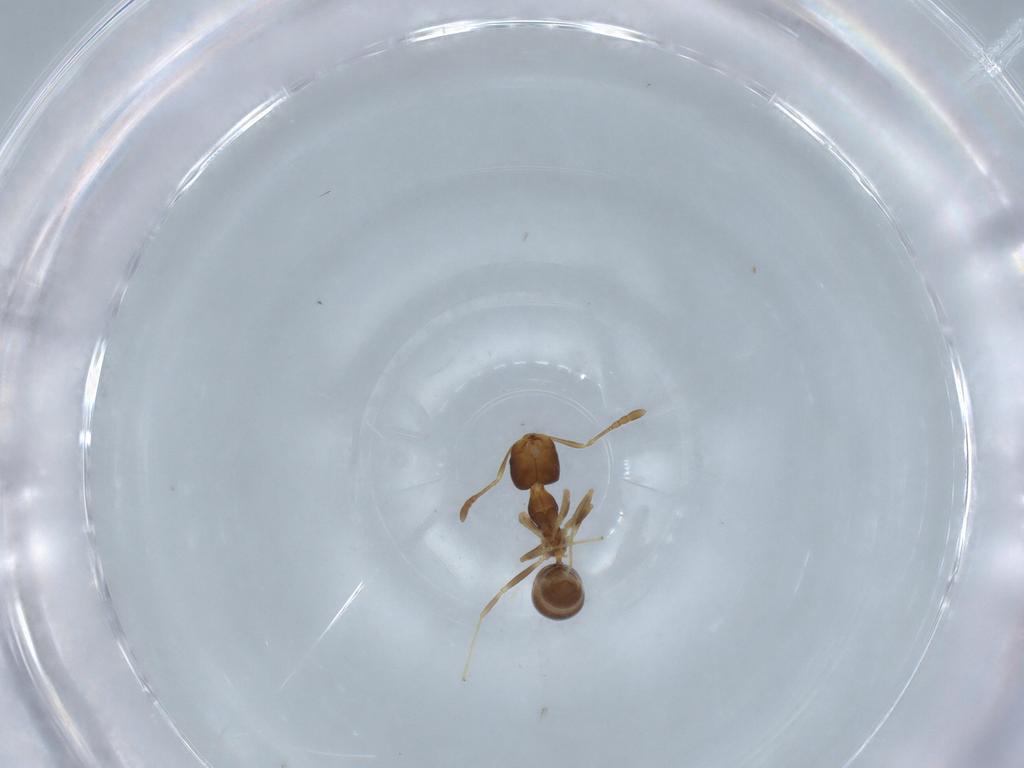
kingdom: Animalia
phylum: Arthropoda
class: Insecta
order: Hymenoptera
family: Formicidae
